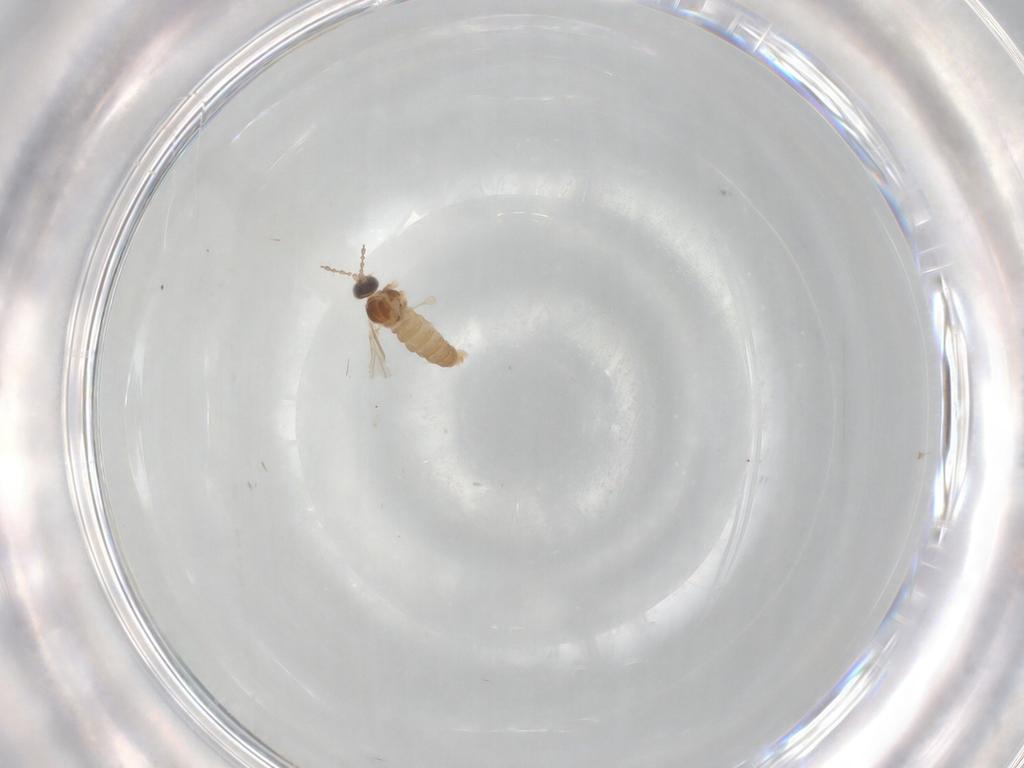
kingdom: Animalia
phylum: Arthropoda
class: Insecta
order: Diptera
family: Cecidomyiidae
